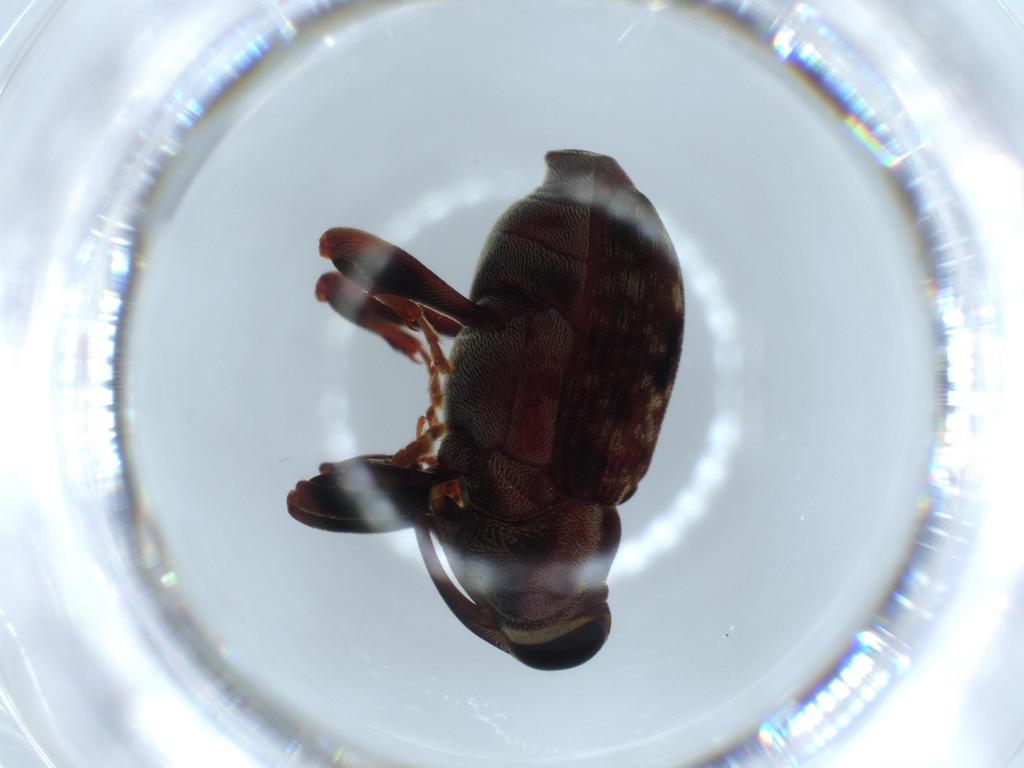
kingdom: Animalia
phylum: Arthropoda
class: Insecta
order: Coleoptera
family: Curculionidae
